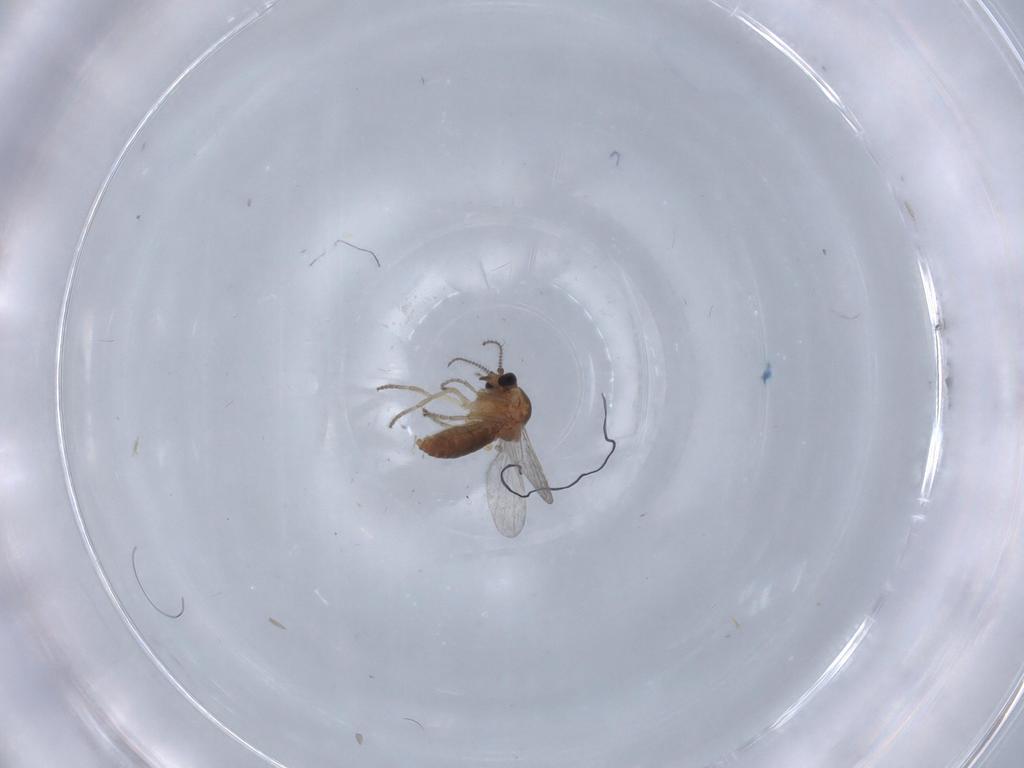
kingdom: Animalia
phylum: Arthropoda
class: Insecta
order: Diptera
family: Ceratopogonidae
